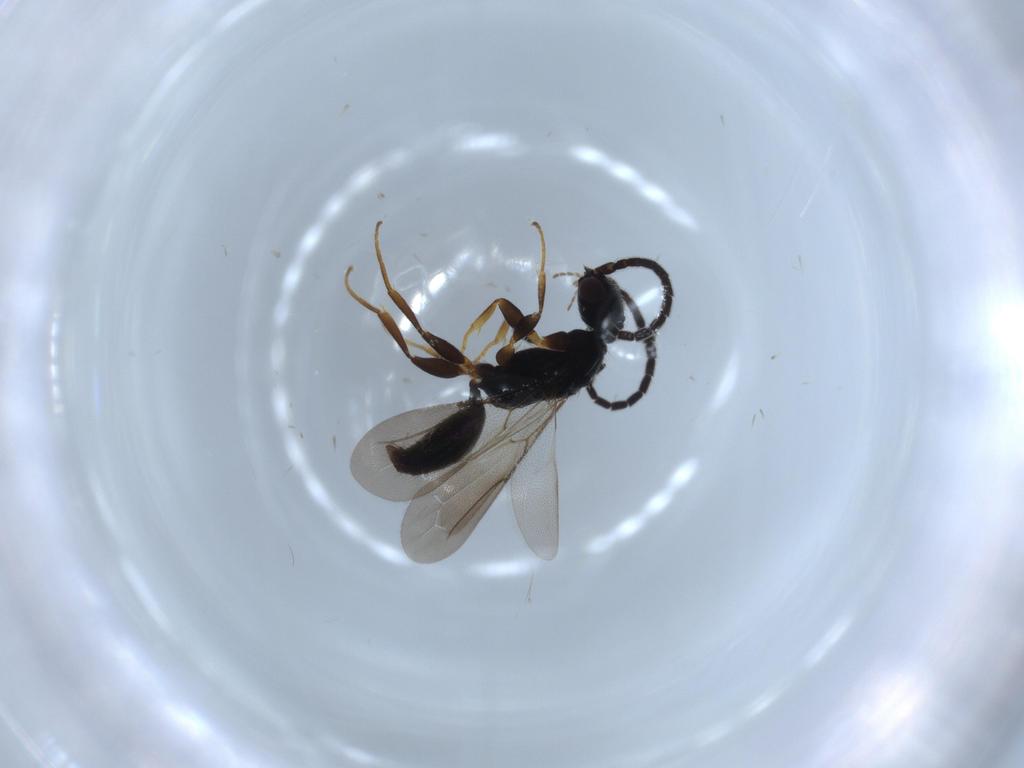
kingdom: Animalia
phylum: Arthropoda
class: Insecta
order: Hymenoptera
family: Bethylidae
